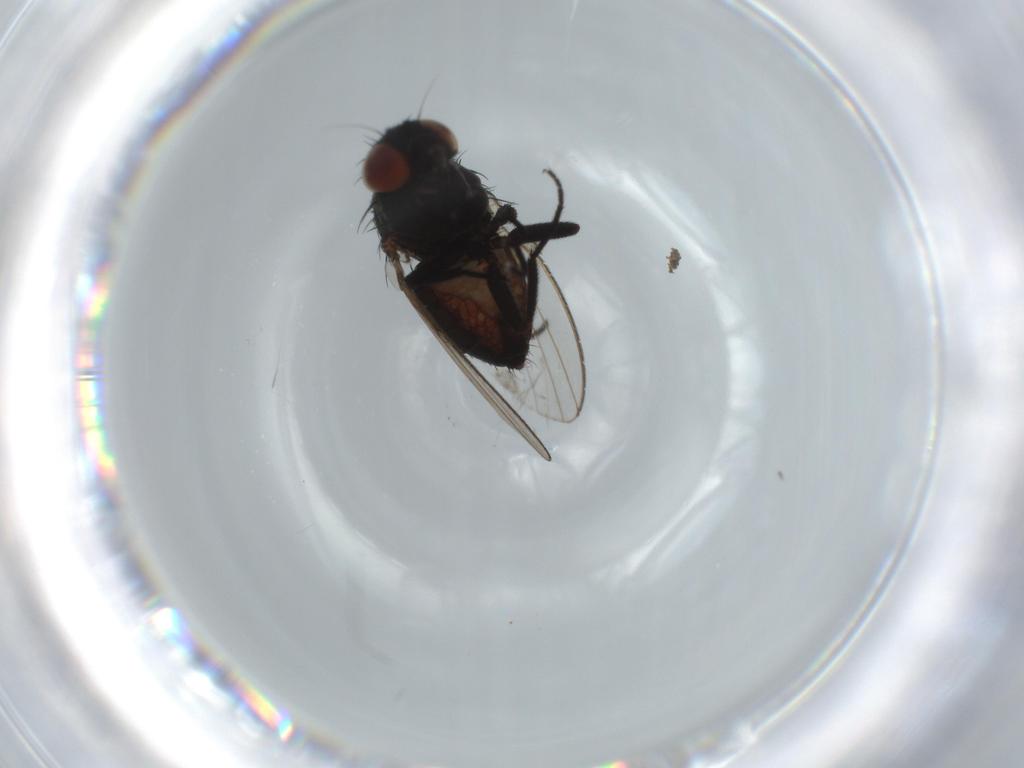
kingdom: Animalia
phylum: Arthropoda
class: Insecta
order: Diptera
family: Milichiidae
